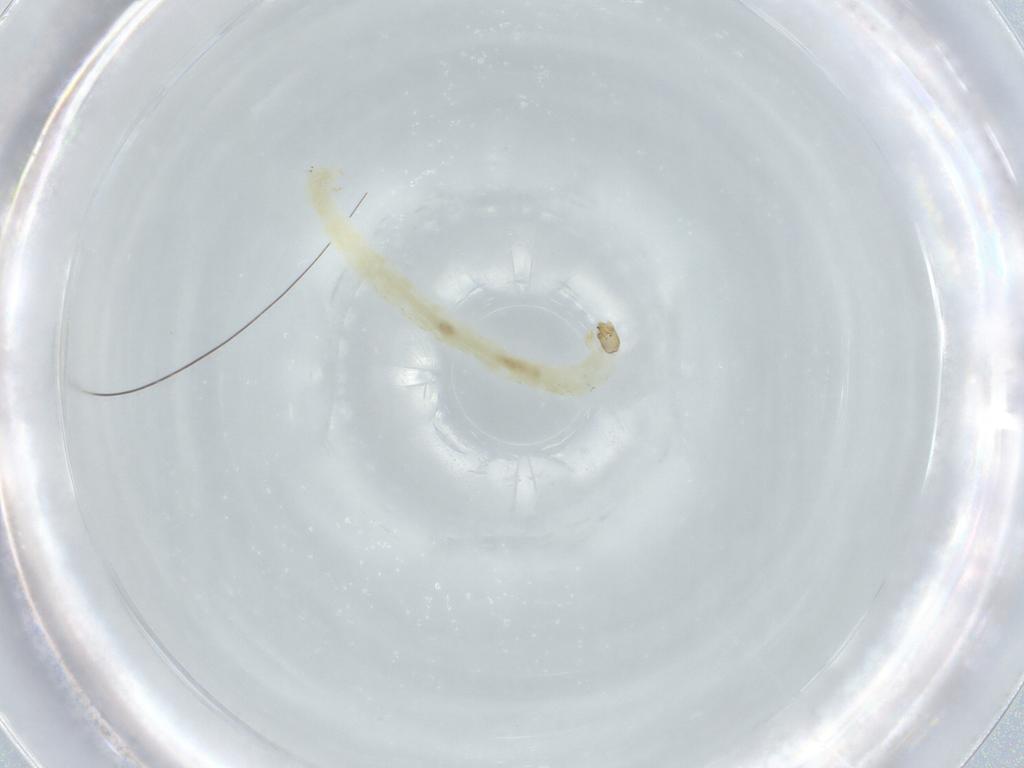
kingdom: Animalia
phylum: Arthropoda
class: Insecta
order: Diptera
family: Chironomidae
